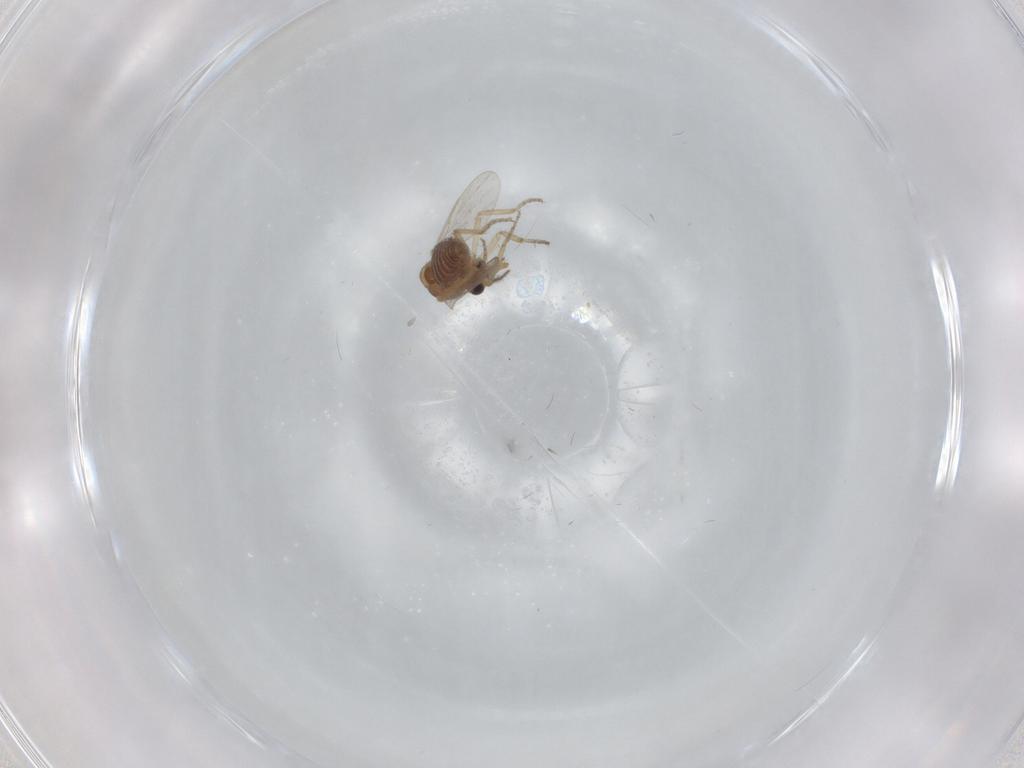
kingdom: Animalia
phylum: Arthropoda
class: Insecta
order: Diptera
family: Ceratopogonidae
